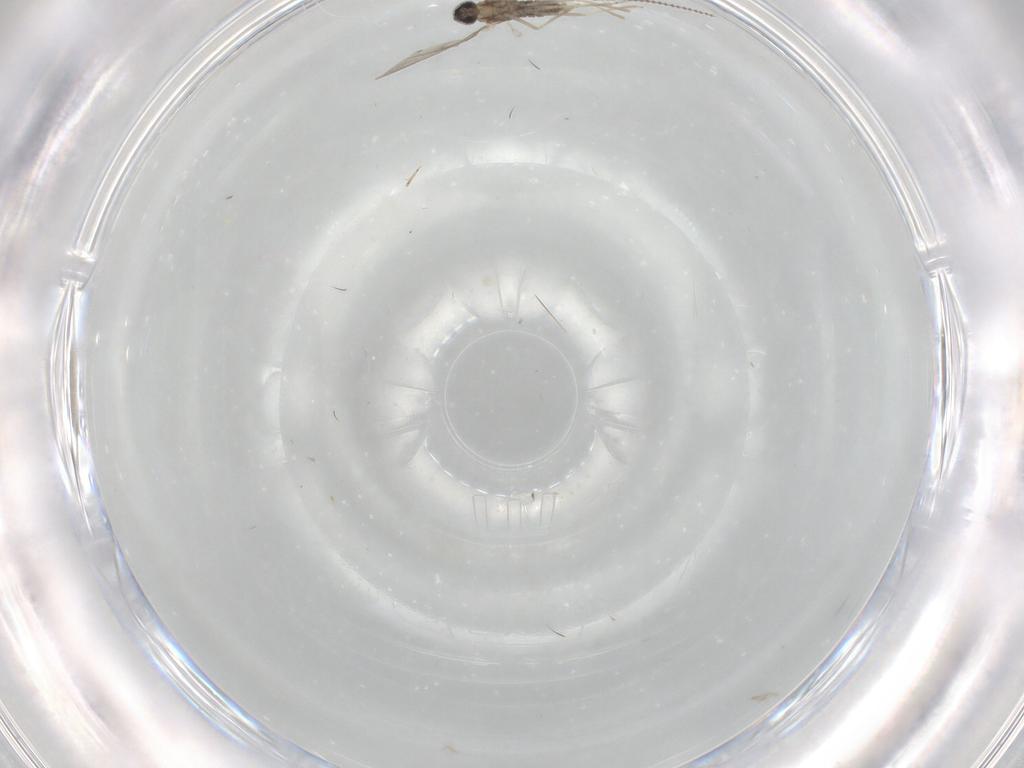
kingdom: Animalia
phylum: Arthropoda
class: Insecta
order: Diptera
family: Cecidomyiidae
